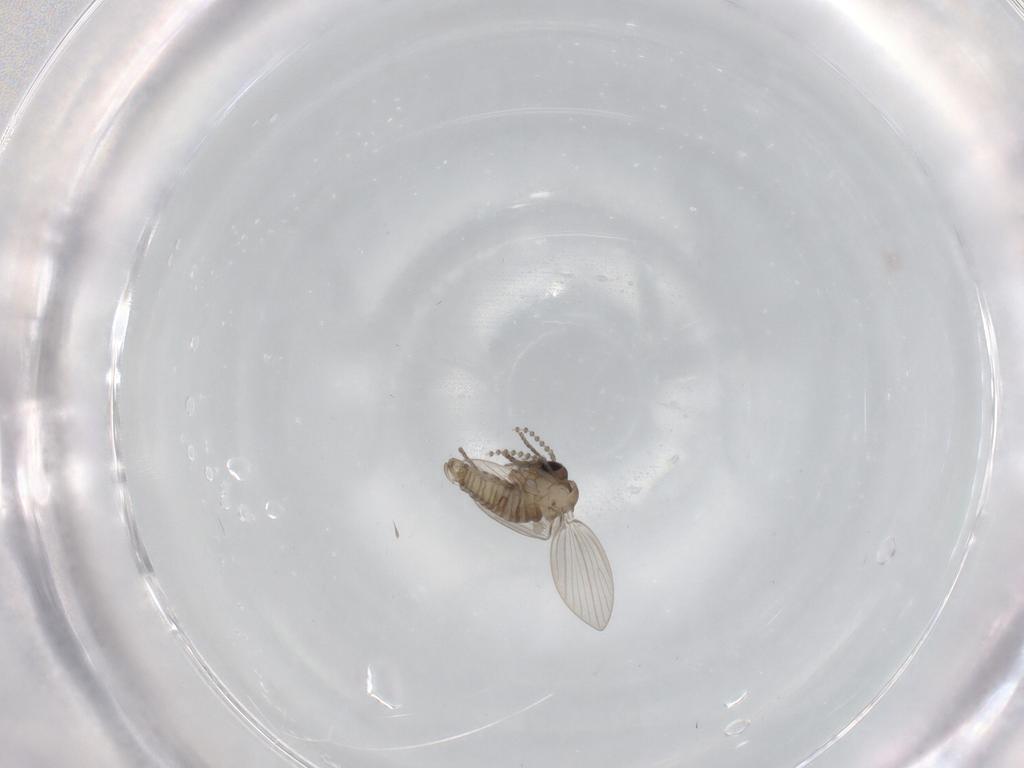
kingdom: Animalia
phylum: Arthropoda
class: Insecta
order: Diptera
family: Psychodidae
